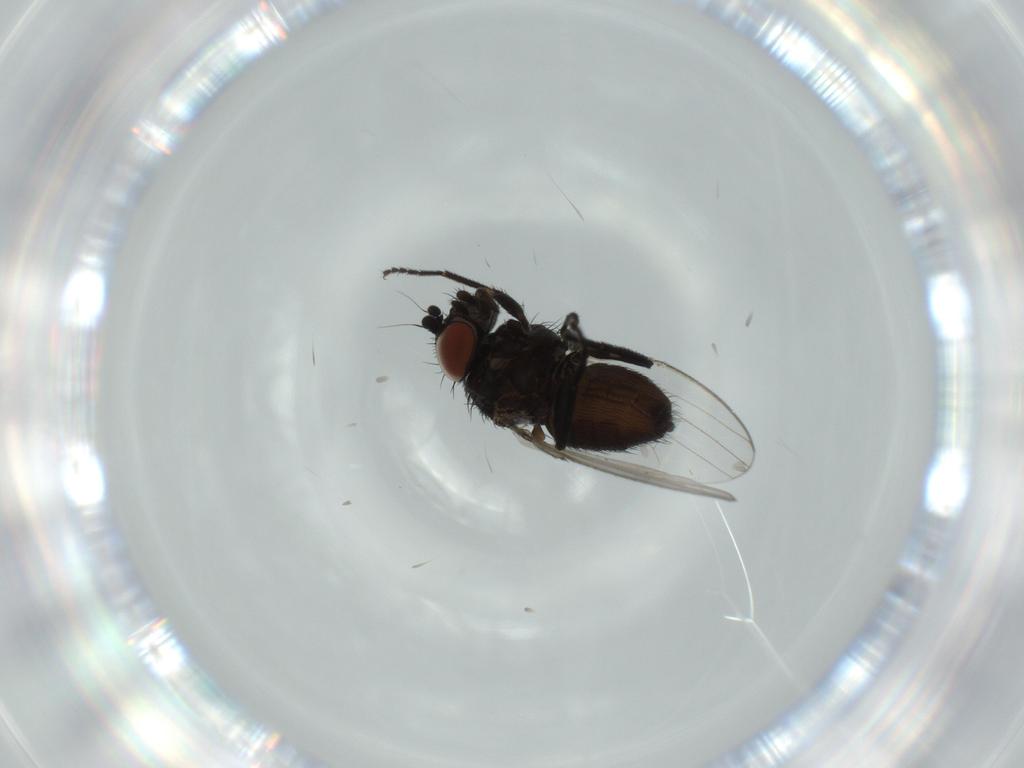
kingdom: Animalia
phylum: Arthropoda
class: Insecta
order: Diptera
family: Milichiidae
